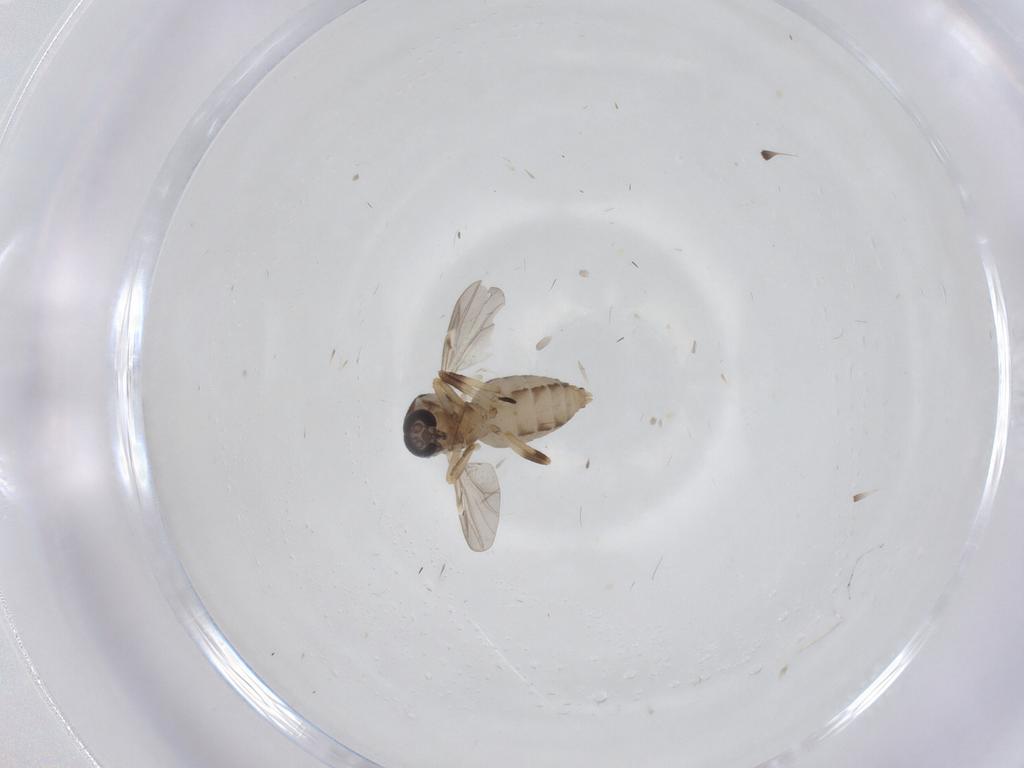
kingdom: Animalia
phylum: Arthropoda
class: Insecta
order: Diptera
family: Ceratopogonidae
